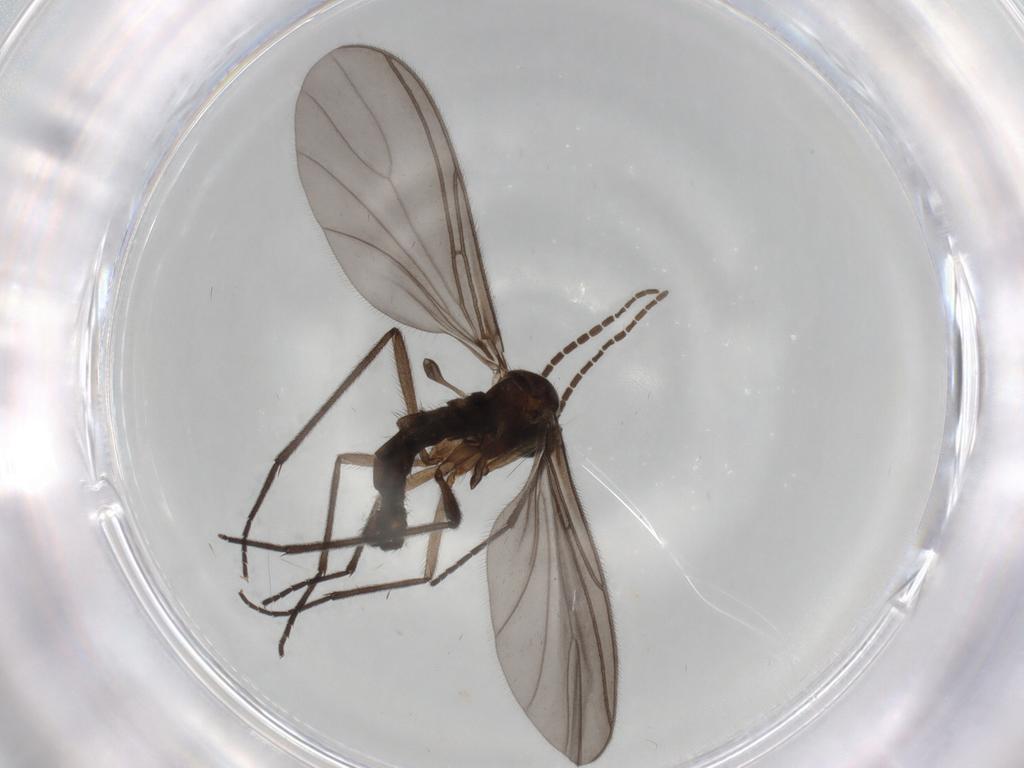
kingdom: Animalia
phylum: Arthropoda
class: Insecta
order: Diptera
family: Sciaridae
